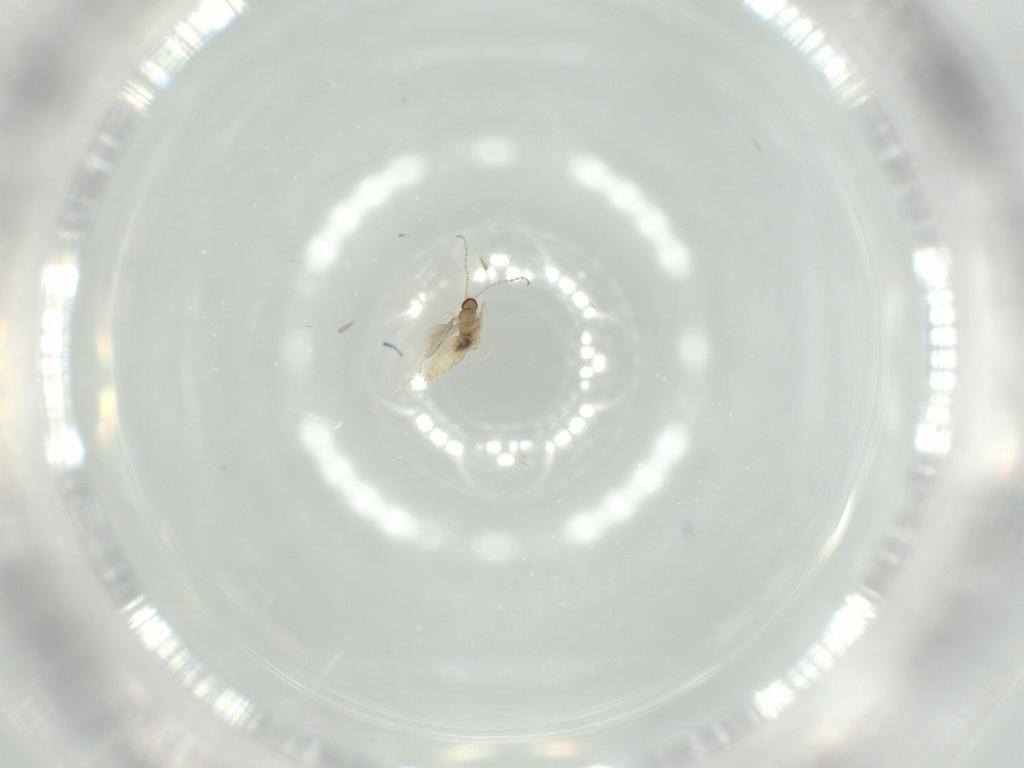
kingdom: Animalia
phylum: Arthropoda
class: Insecta
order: Diptera
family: Cecidomyiidae
